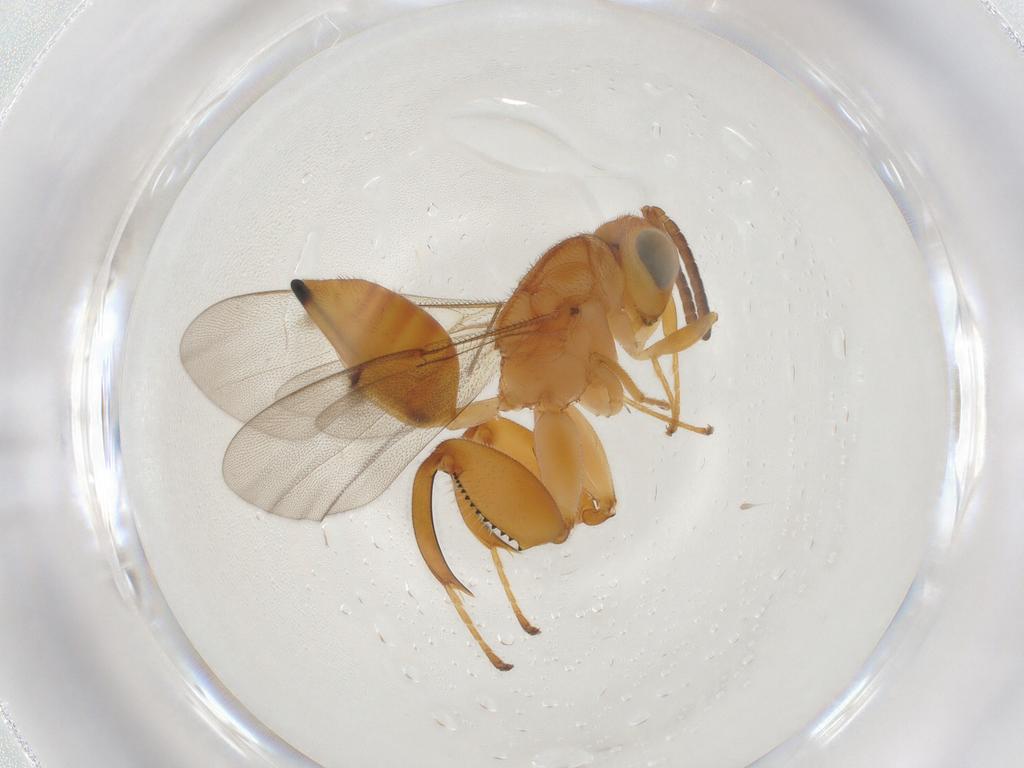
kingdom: Animalia
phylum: Arthropoda
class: Insecta
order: Hymenoptera
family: Chalcididae
